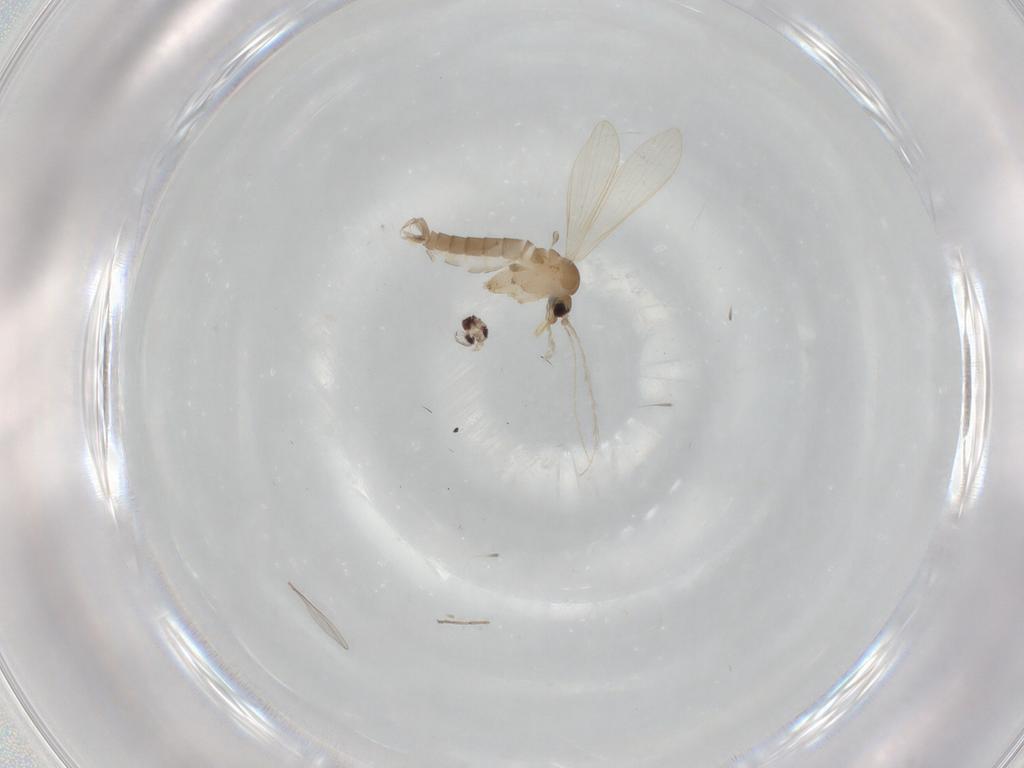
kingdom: Animalia
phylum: Arthropoda
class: Insecta
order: Diptera
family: Psychodidae
